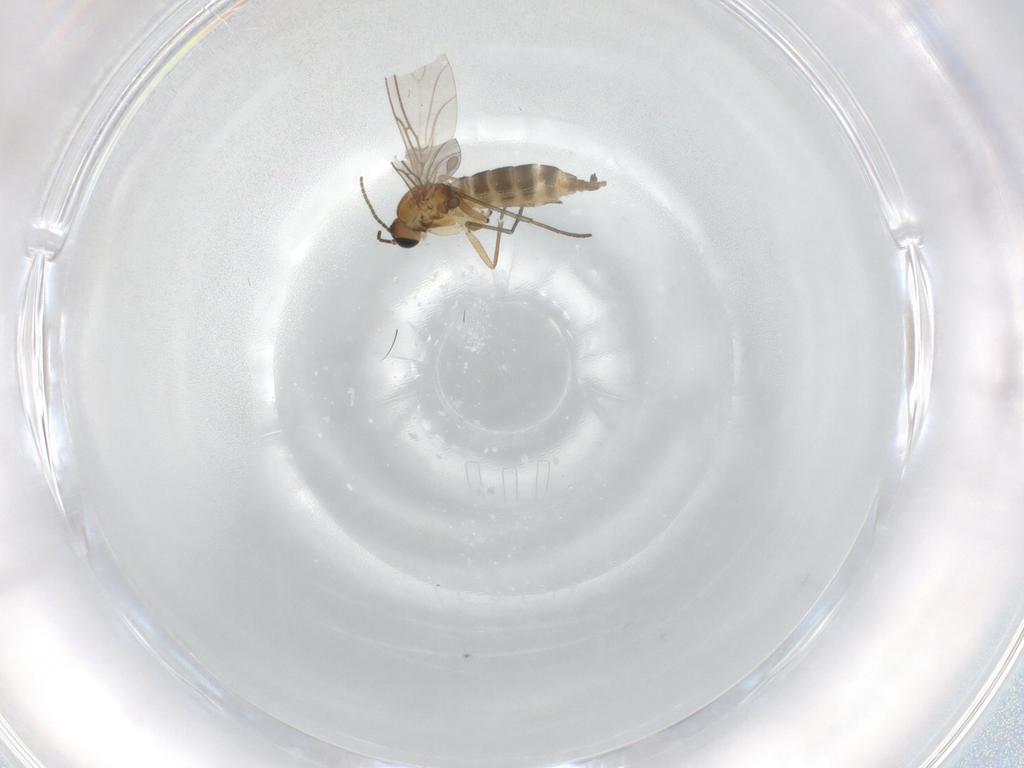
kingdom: Animalia
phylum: Arthropoda
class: Insecta
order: Diptera
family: Sciaridae
